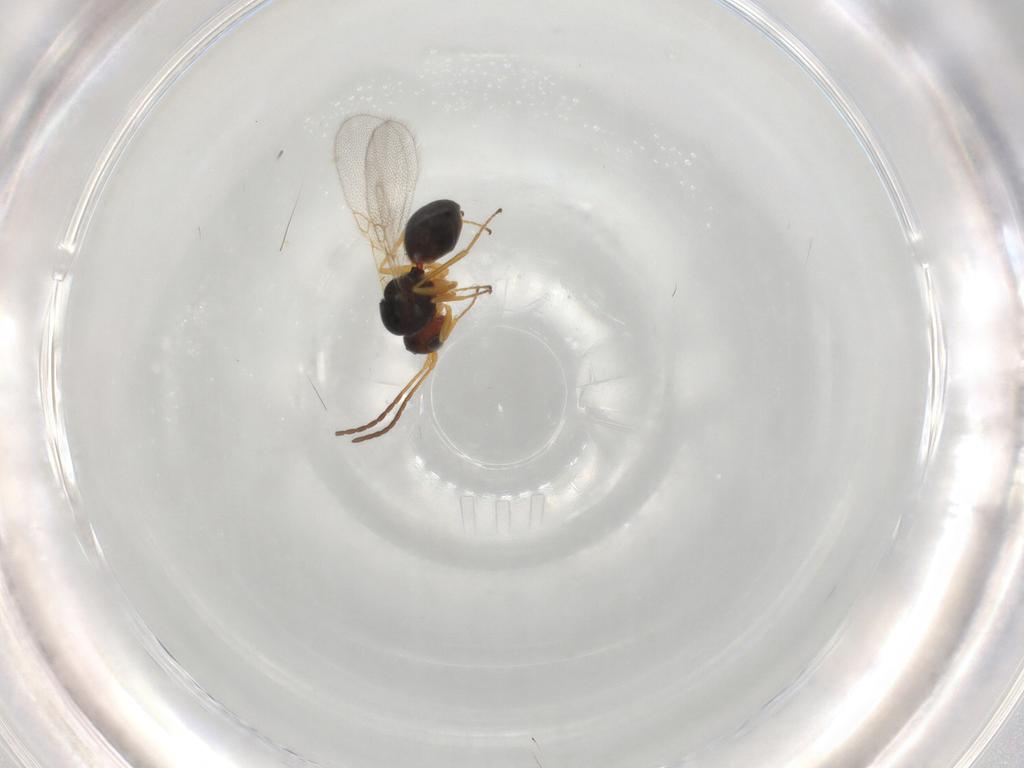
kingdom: Animalia
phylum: Arthropoda
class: Insecta
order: Hymenoptera
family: Figitidae
